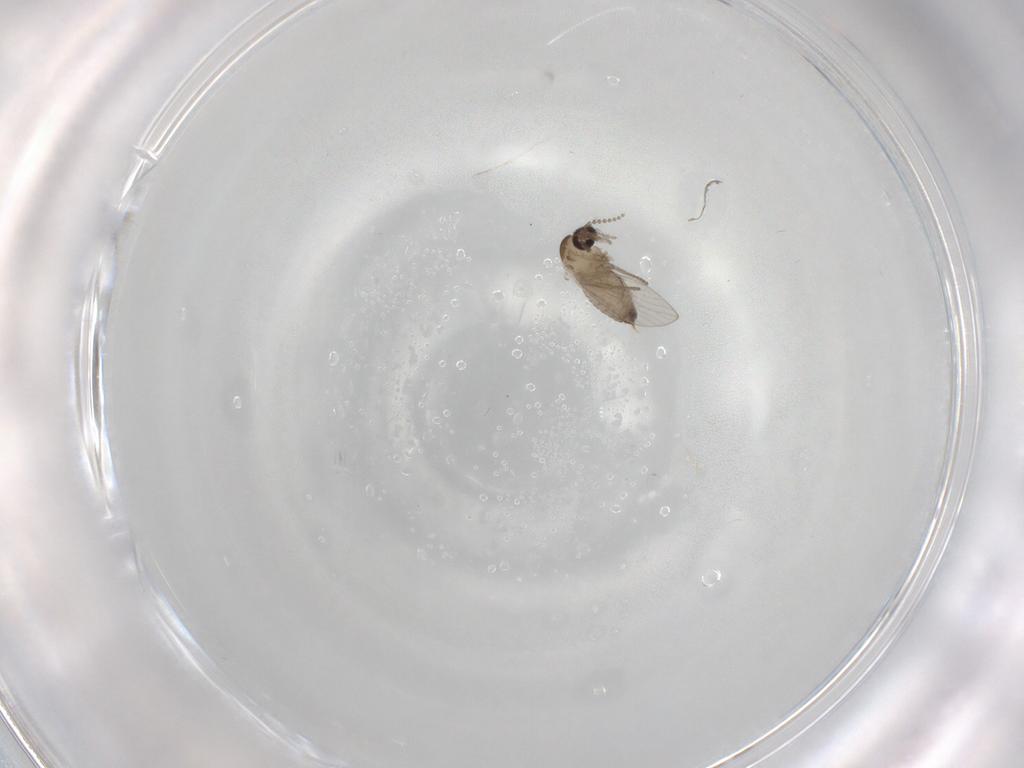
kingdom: Animalia
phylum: Arthropoda
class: Insecta
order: Diptera
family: Psychodidae
